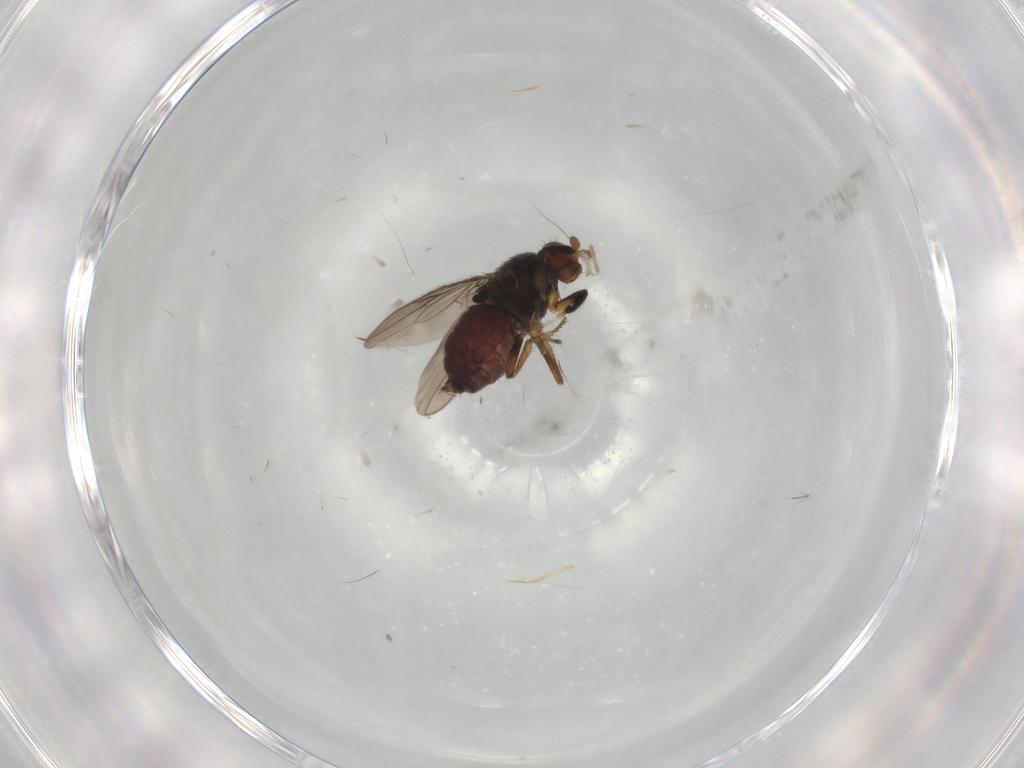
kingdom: Animalia
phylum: Arthropoda
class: Insecta
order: Diptera
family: Sphaeroceridae
